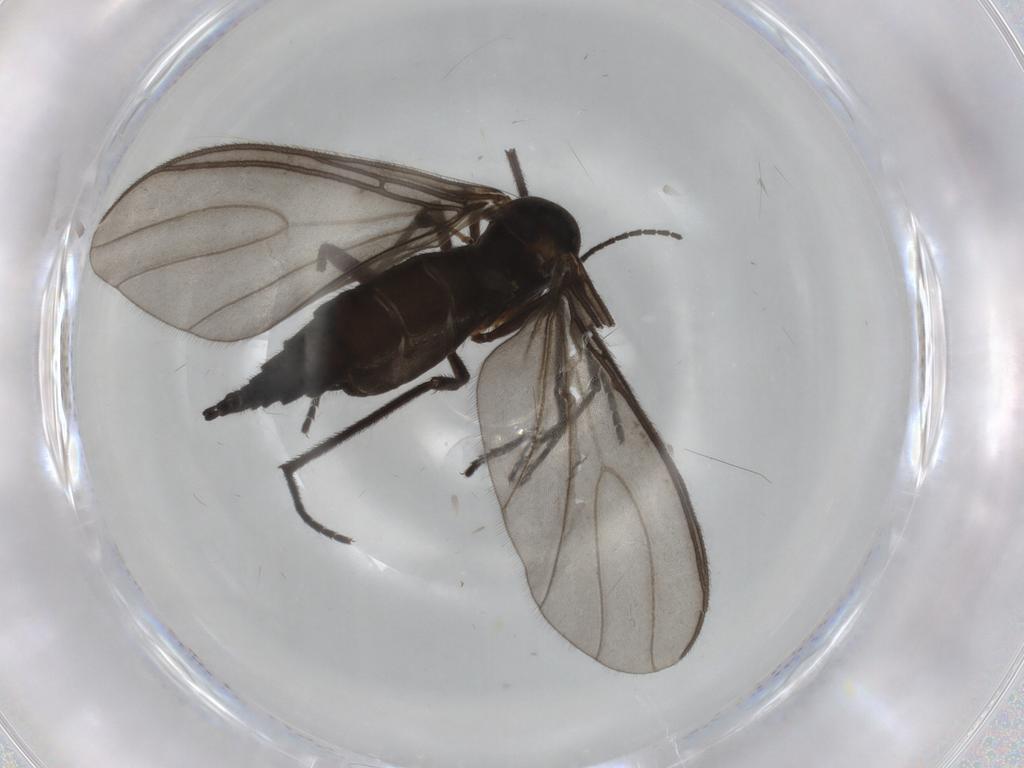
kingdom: Animalia
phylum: Arthropoda
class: Insecta
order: Diptera
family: Sciaridae
